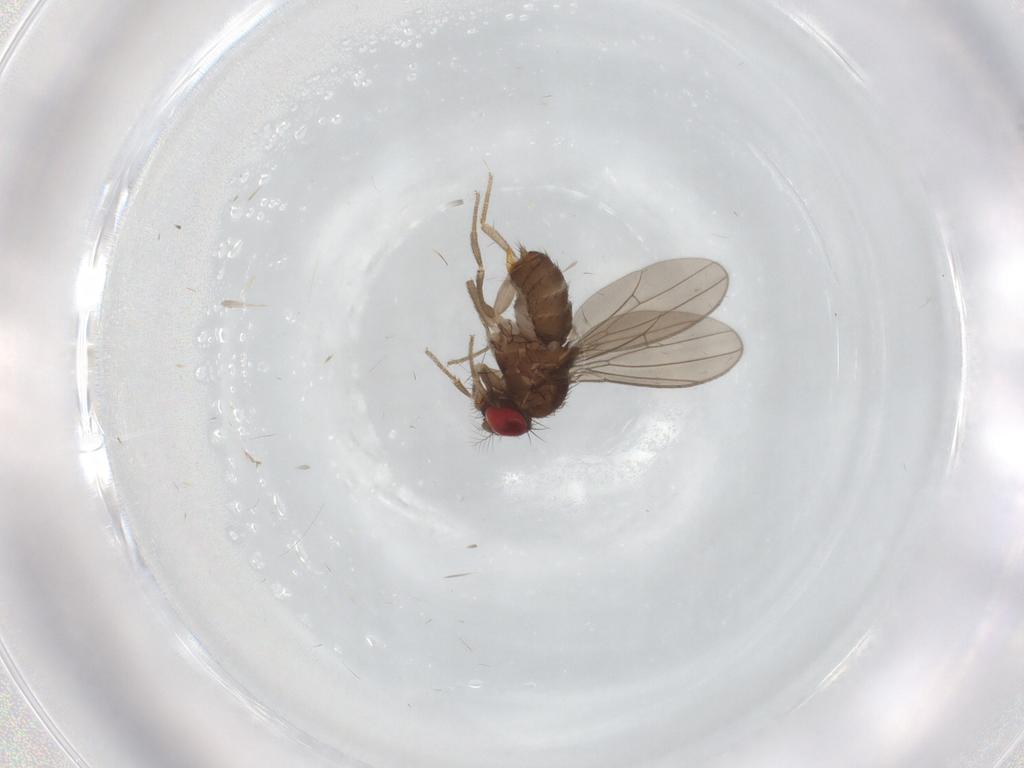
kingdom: Animalia
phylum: Arthropoda
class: Insecta
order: Diptera
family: Drosophilidae
